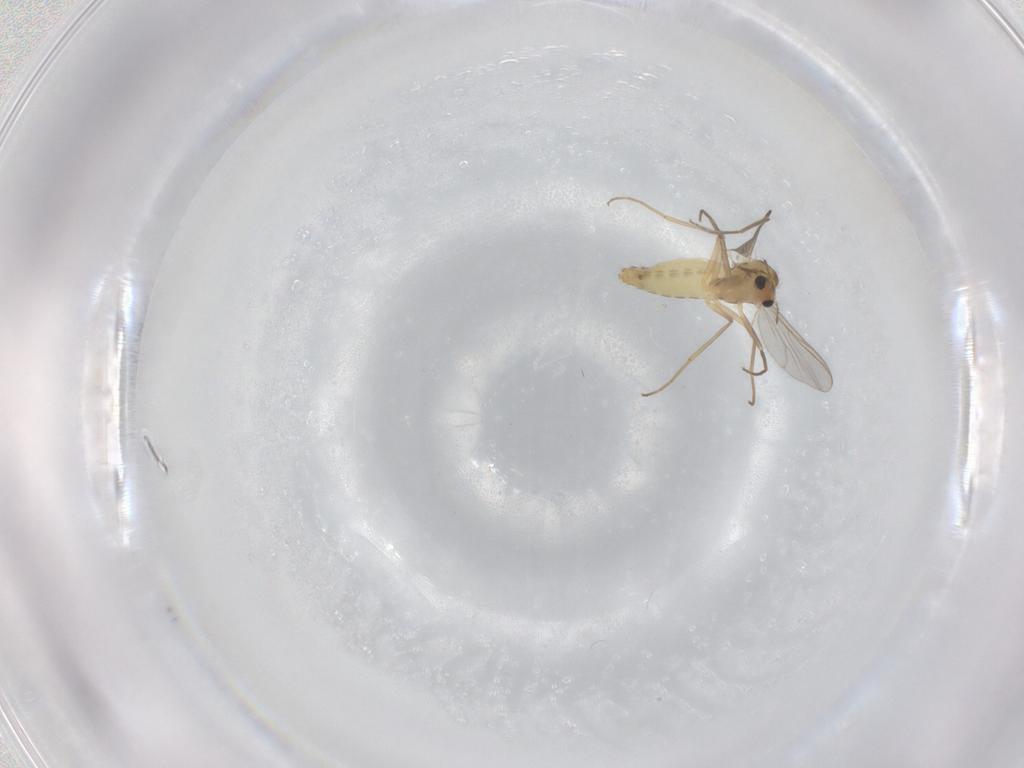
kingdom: Animalia
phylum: Arthropoda
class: Insecta
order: Diptera
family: Chironomidae
